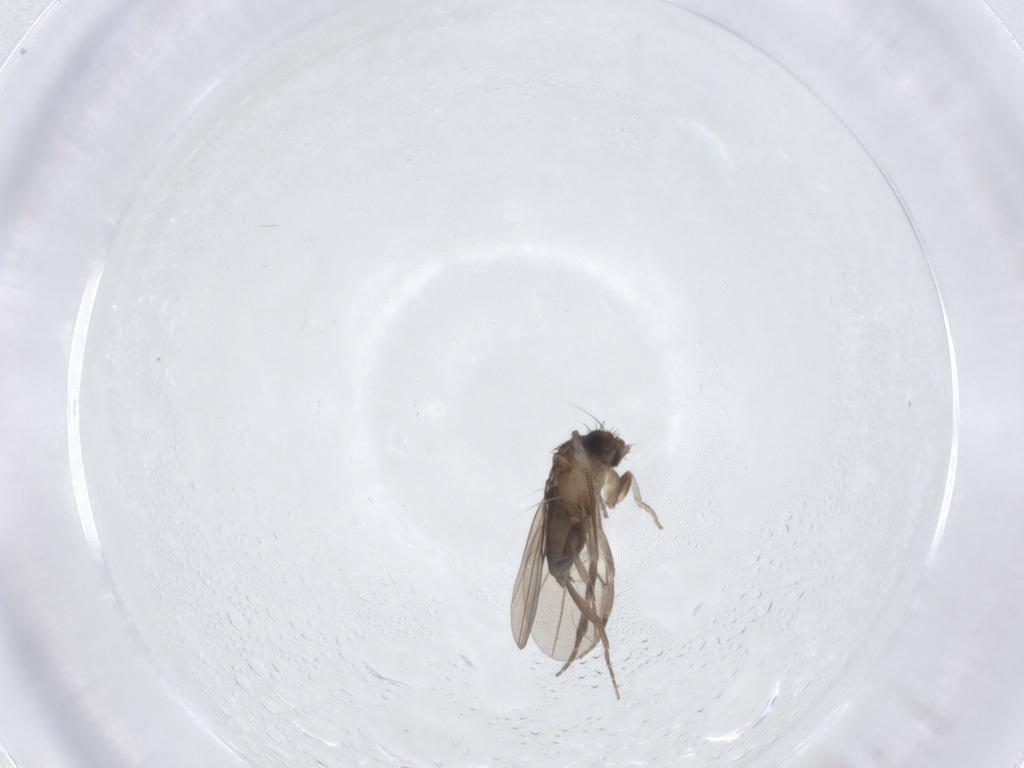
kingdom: Animalia
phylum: Arthropoda
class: Insecta
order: Diptera
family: Chironomidae
